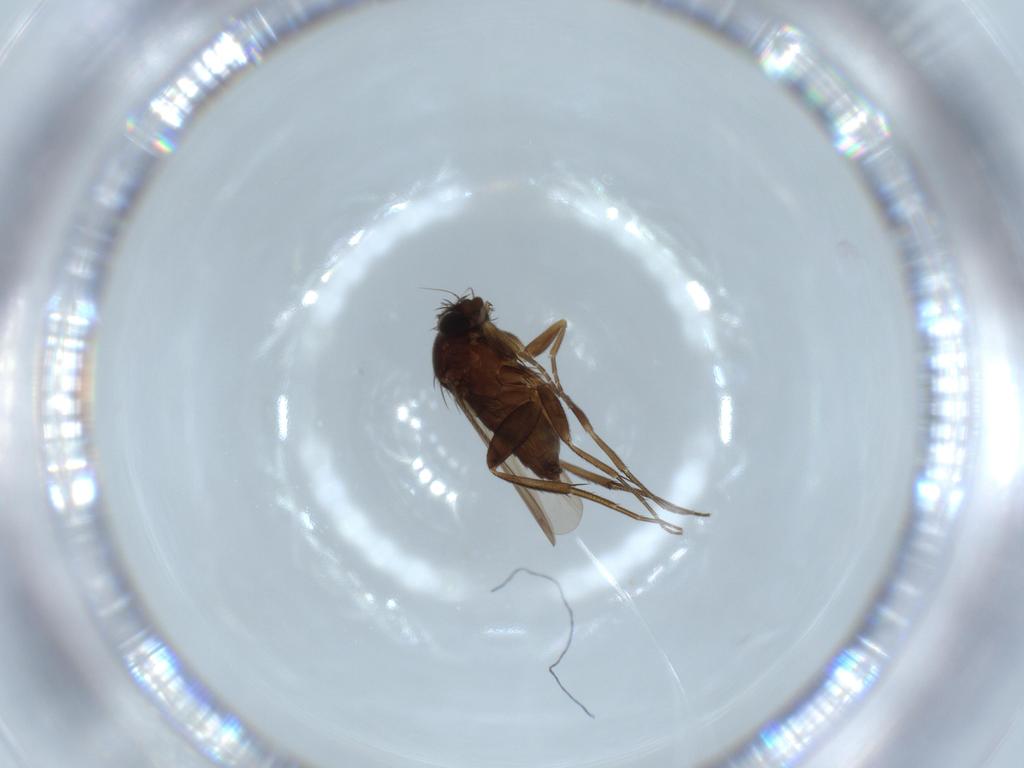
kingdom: Animalia
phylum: Arthropoda
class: Insecta
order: Diptera
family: Phoridae
